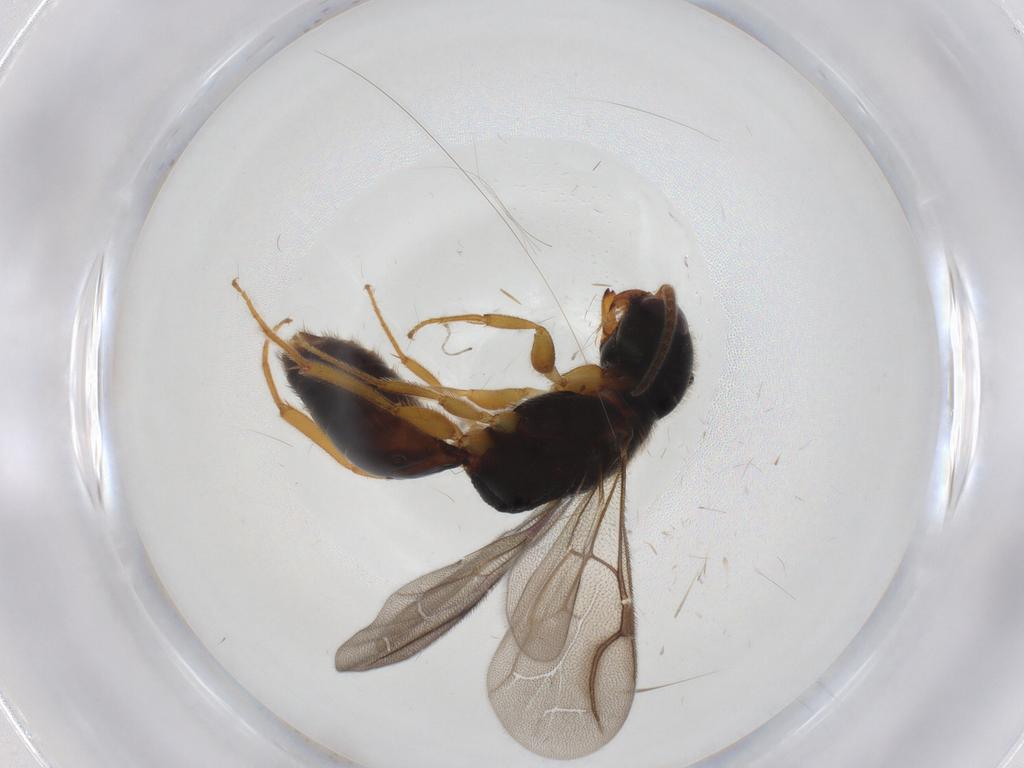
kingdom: Animalia
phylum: Arthropoda
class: Insecta
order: Hymenoptera
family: Bethylidae
